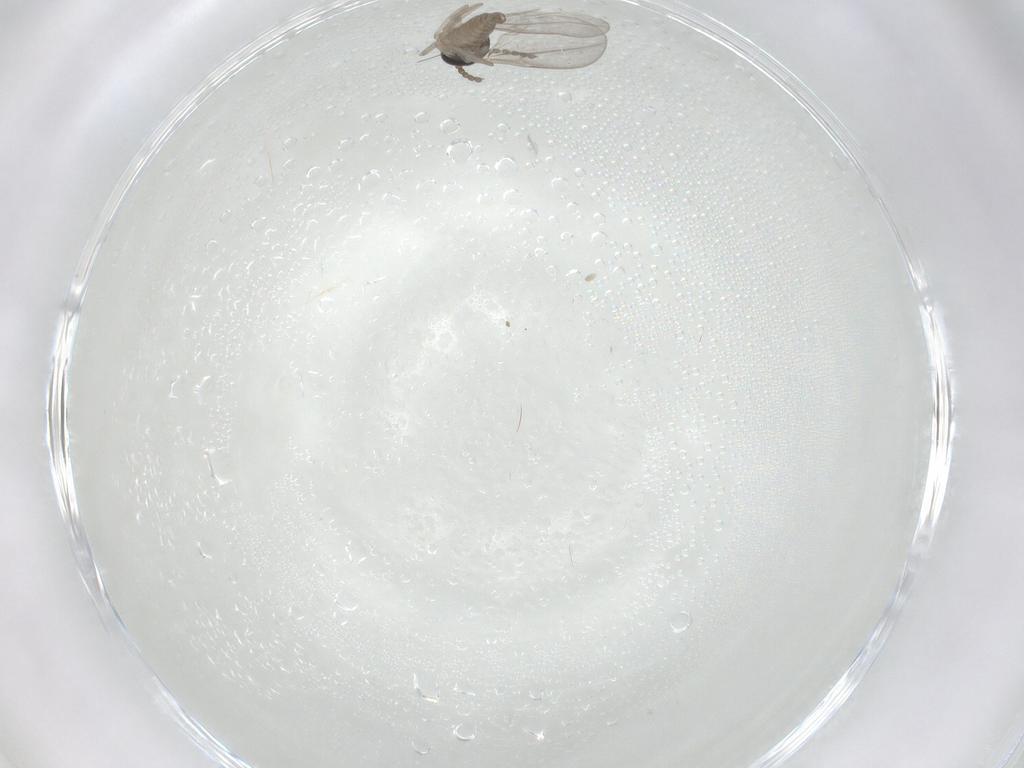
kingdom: Animalia
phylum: Arthropoda
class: Insecta
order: Diptera
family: Cecidomyiidae
